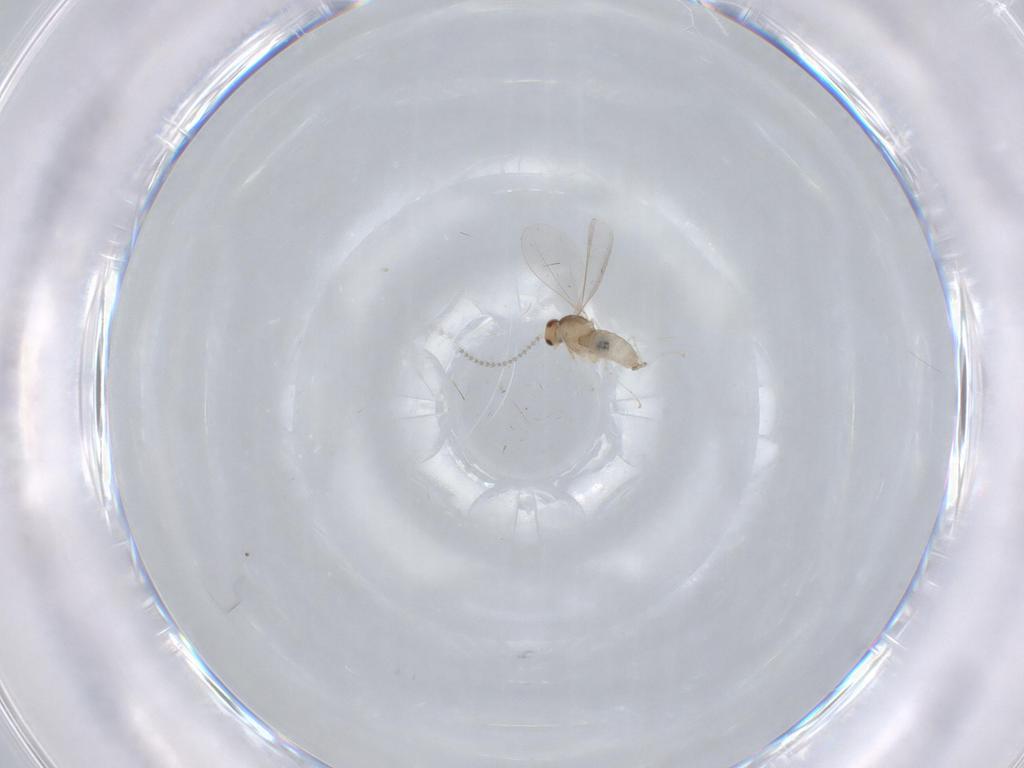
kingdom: Animalia
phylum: Arthropoda
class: Insecta
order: Diptera
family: Cecidomyiidae
